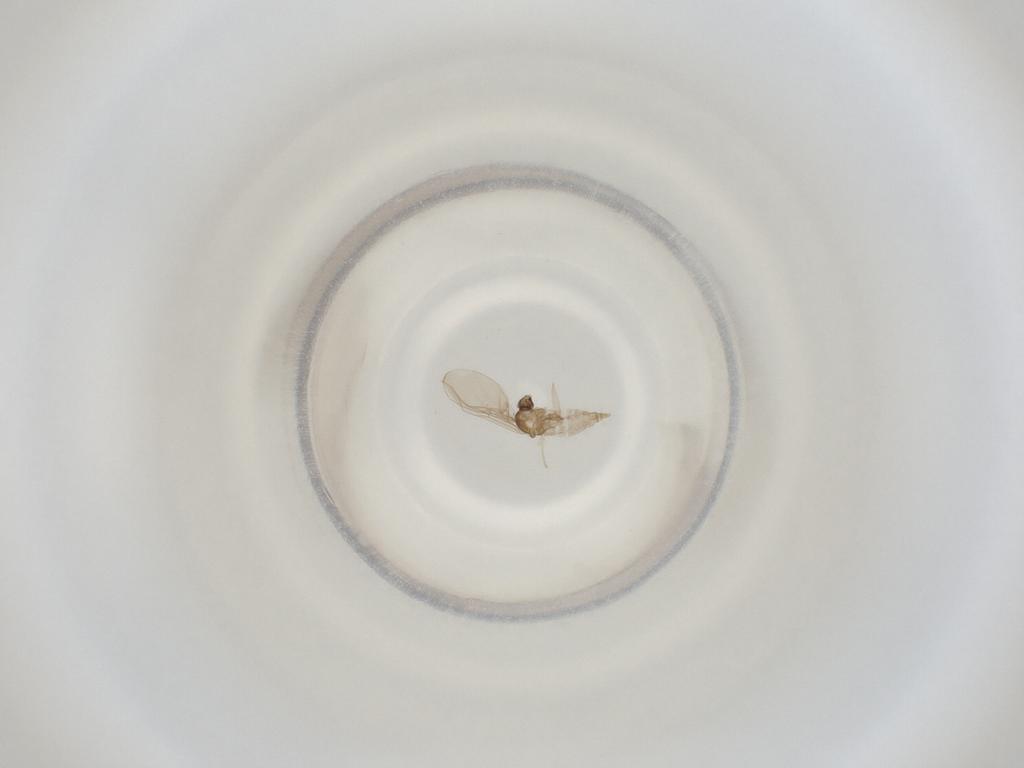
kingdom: Animalia
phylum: Arthropoda
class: Insecta
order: Diptera
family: Cecidomyiidae
